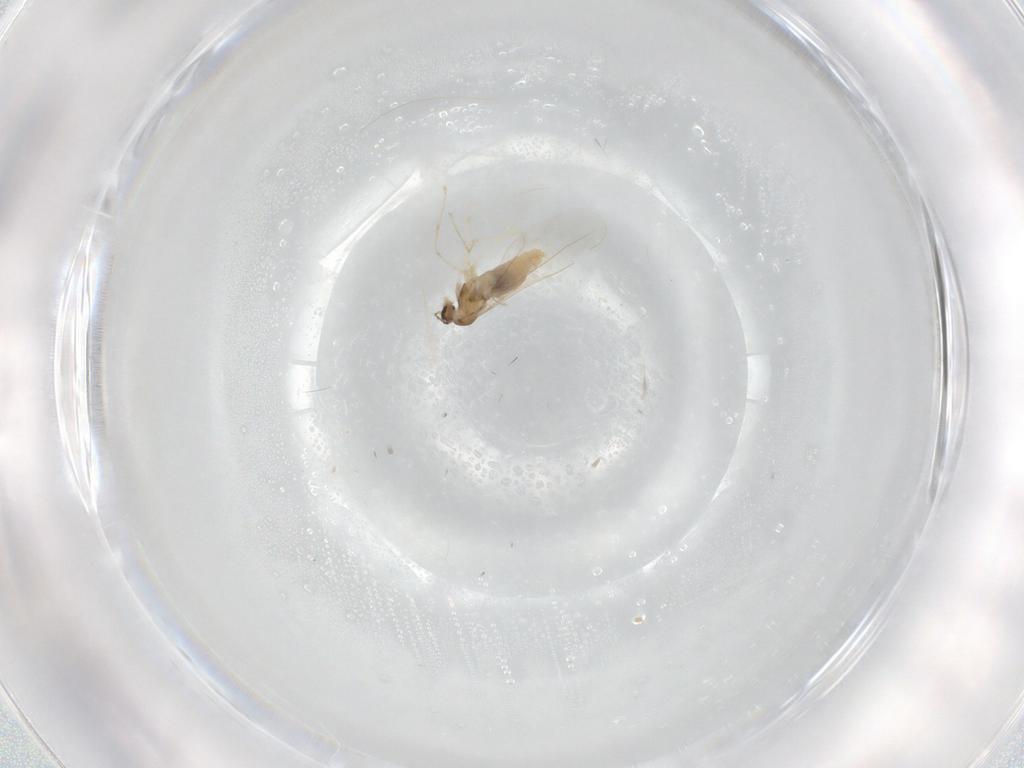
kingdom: Animalia
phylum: Arthropoda
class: Insecta
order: Diptera
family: Cecidomyiidae
